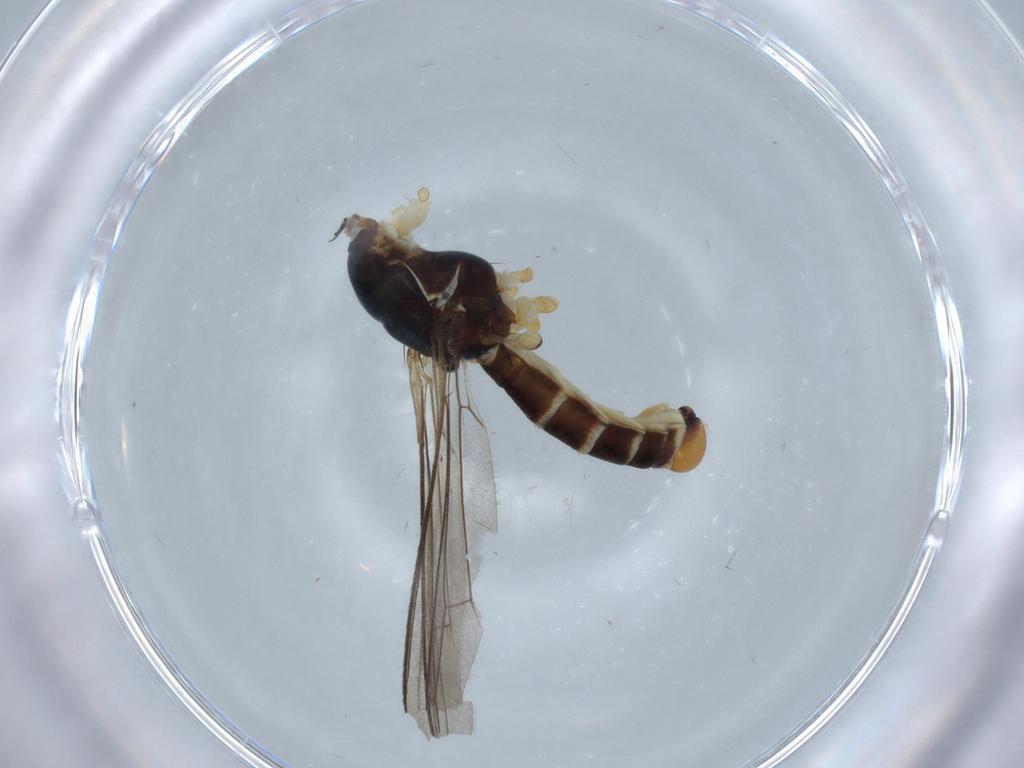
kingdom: Animalia
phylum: Arthropoda
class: Insecta
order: Diptera
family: Micropezidae
